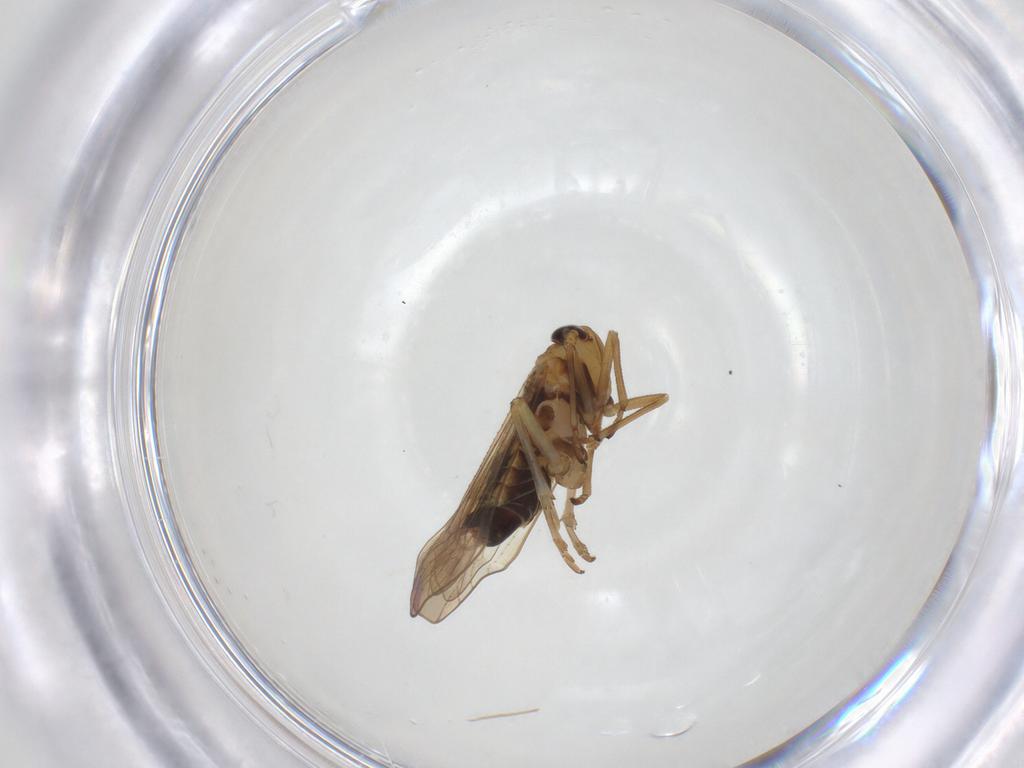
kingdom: Animalia
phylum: Arthropoda
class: Insecta
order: Hemiptera
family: Delphacidae
